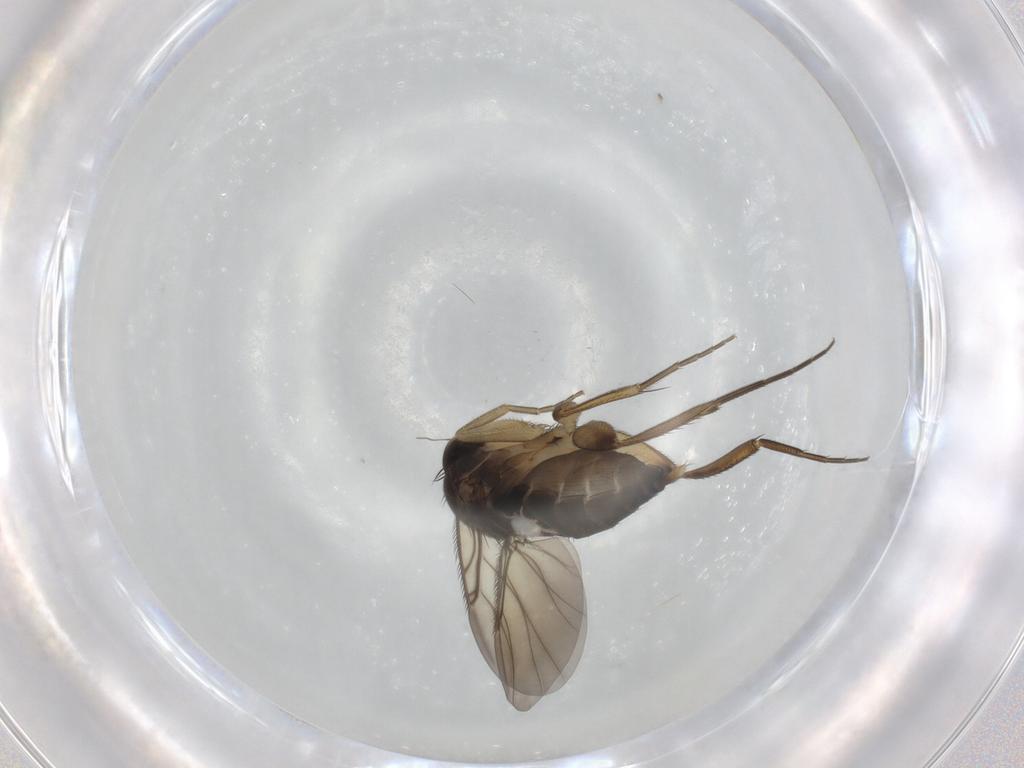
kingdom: Animalia
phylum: Arthropoda
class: Insecta
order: Diptera
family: Phoridae
